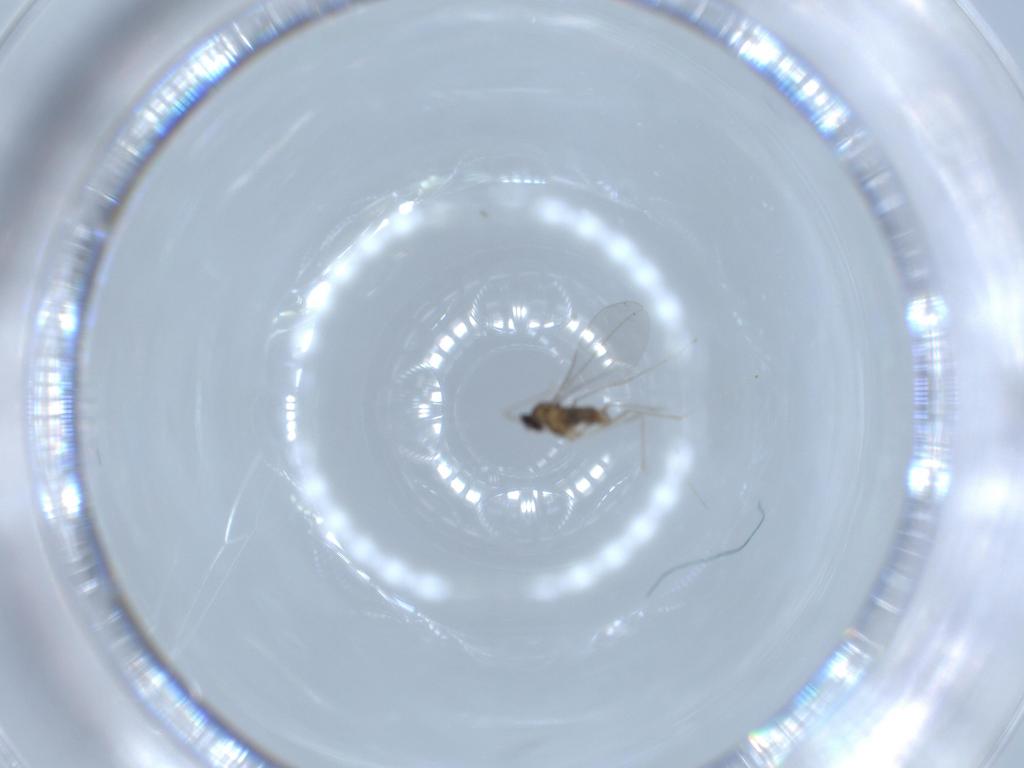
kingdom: Animalia
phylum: Arthropoda
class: Insecta
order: Diptera
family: Cecidomyiidae
